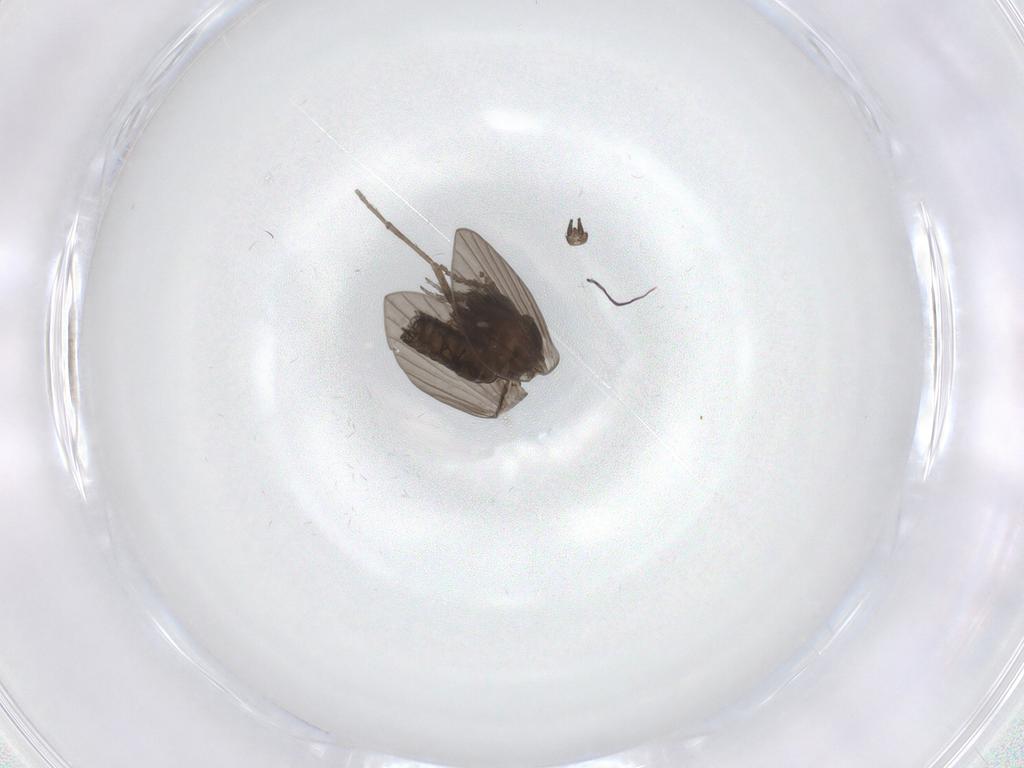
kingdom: Animalia
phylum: Arthropoda
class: Insecta
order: Diptera
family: Psychodidae
